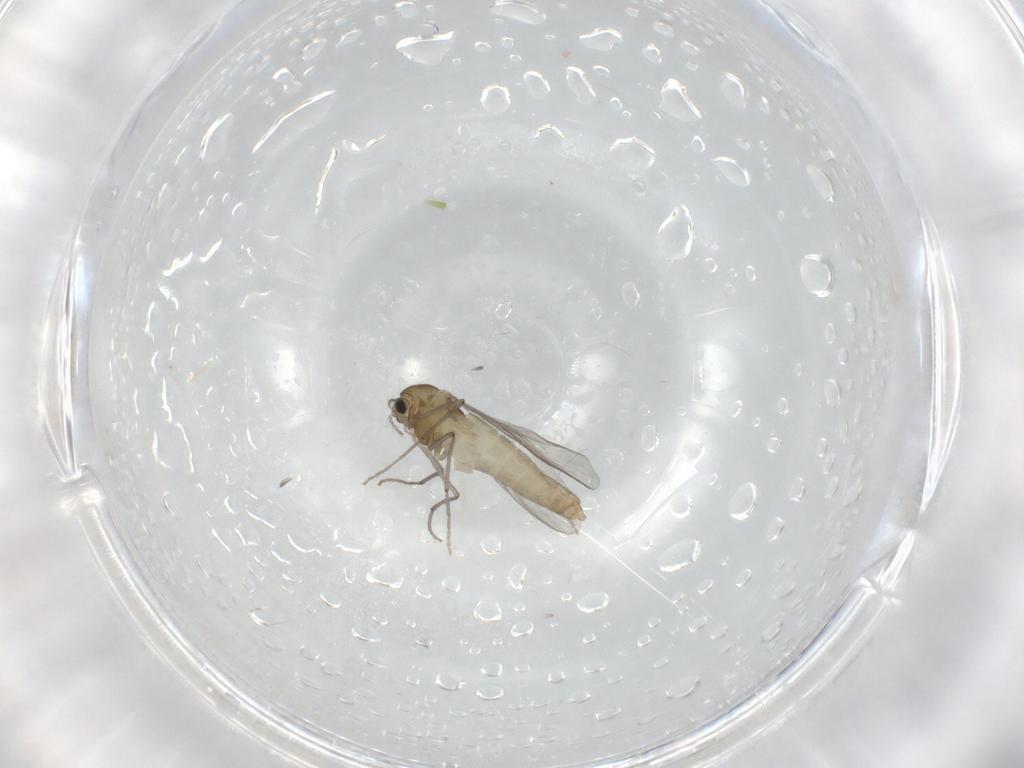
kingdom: Animalia
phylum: Arthropoda
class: Insecta
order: Diptera
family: Chironomidae
